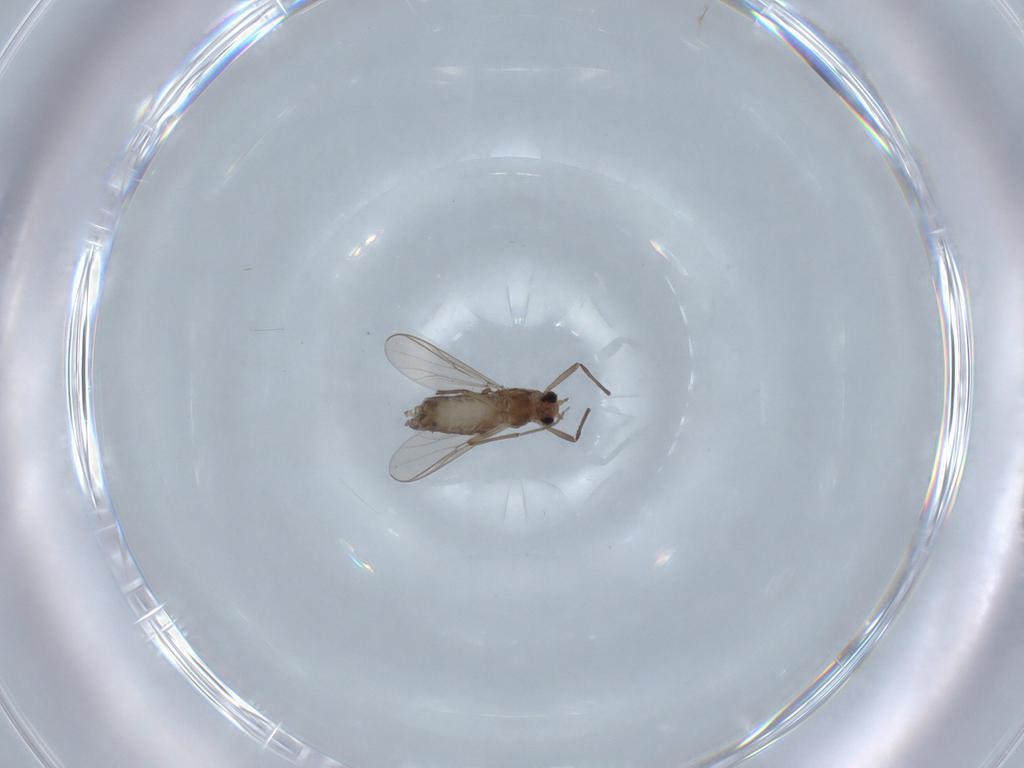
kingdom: Animalia
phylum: Arthropoda
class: Insecta
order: Diptera
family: Chironomidae
